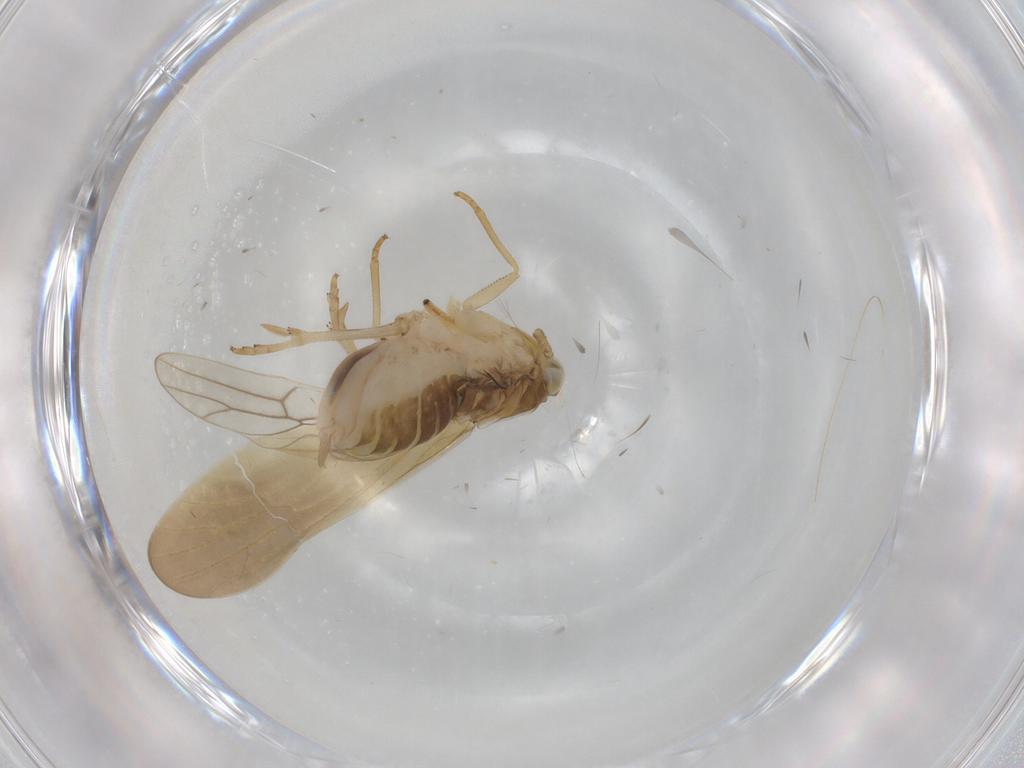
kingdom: Animalia
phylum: Arthropoda
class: Insecta
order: Hemiptera
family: Delphacidae
